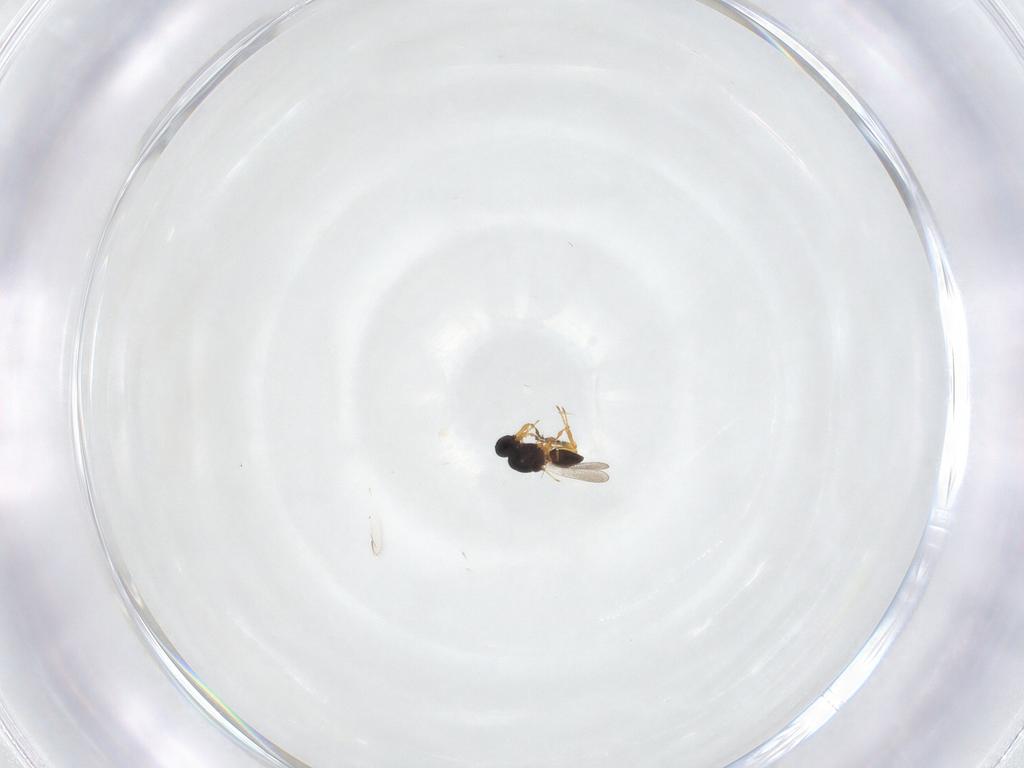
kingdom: Animalia
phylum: Arthropoda
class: Insecta
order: Hymenoptera
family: Figitidae
